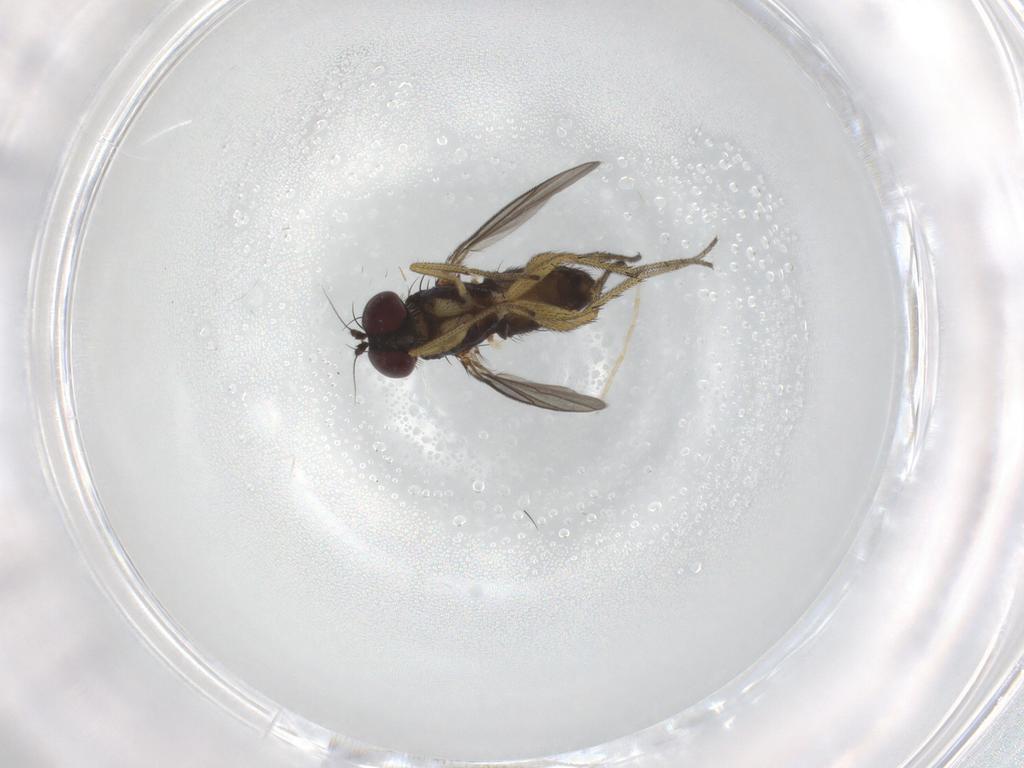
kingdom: Animalia
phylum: Arthropoda
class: Insecta
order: Diptera
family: Dolichopodidae
